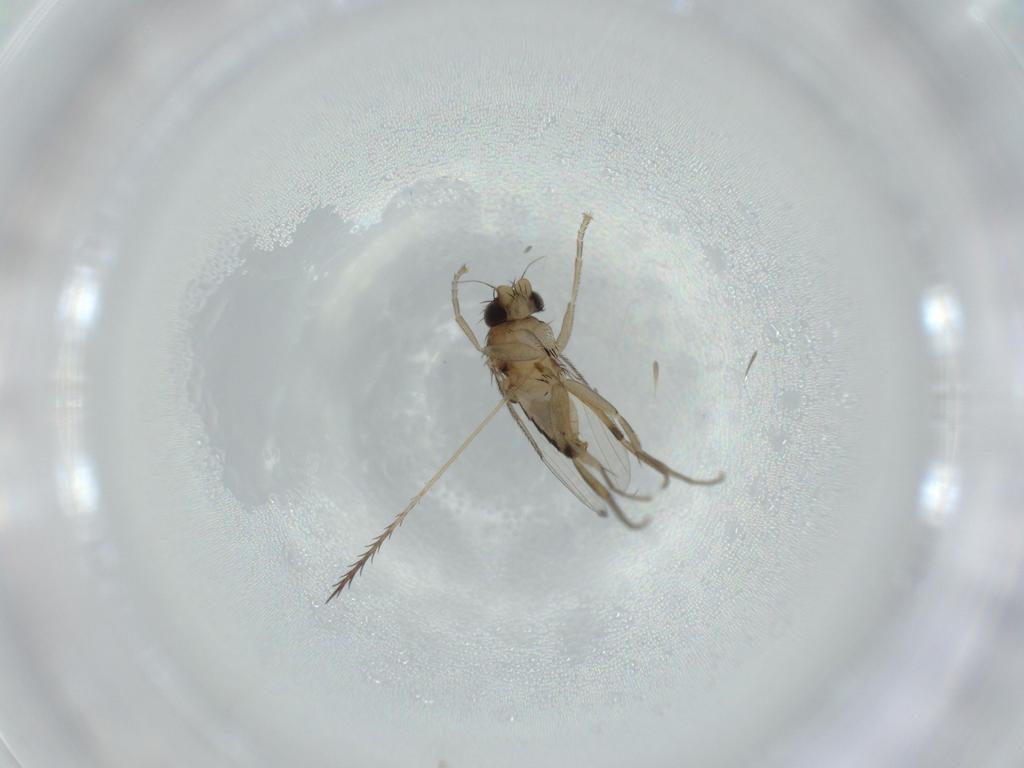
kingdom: Animalia
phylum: Arthropoda
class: Insecta
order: Diptera
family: Phoridae
